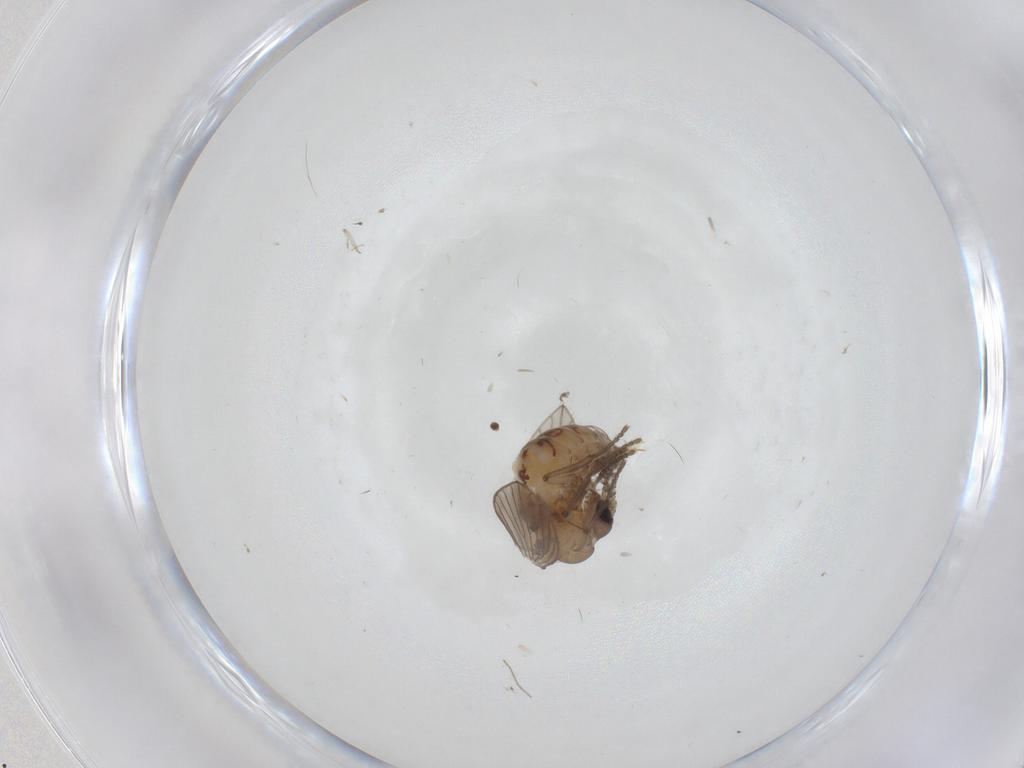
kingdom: Animalia
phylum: Arthropoda
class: Insecta
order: Diptera
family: Psychodidae
